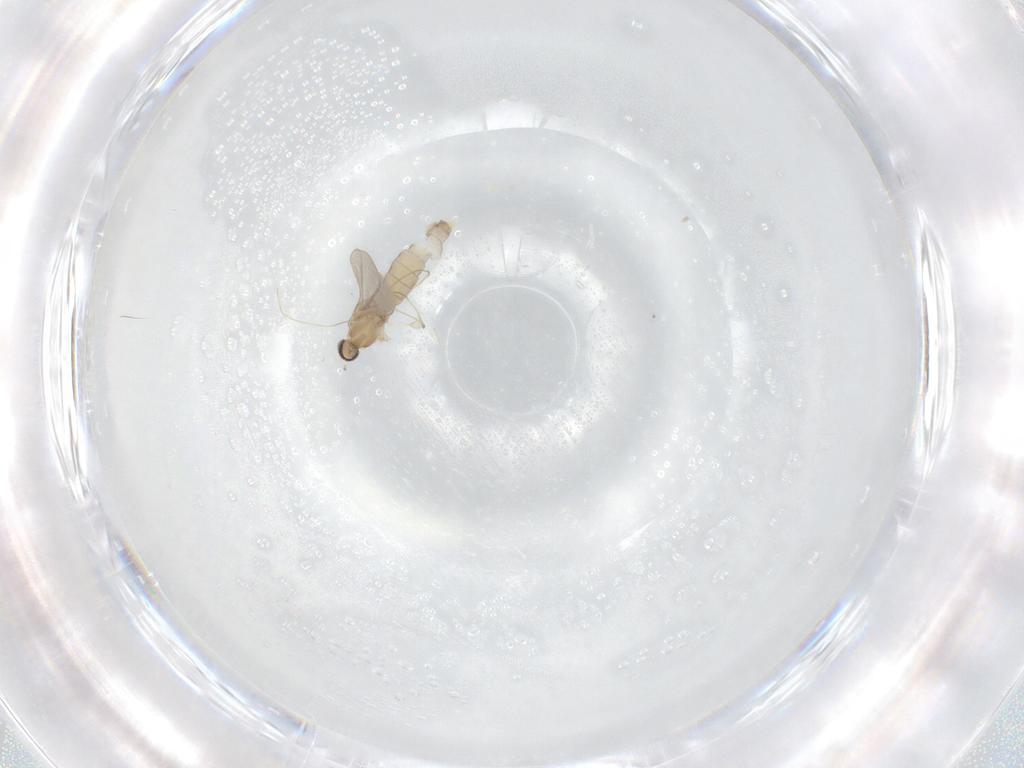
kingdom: Animalia
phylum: Arthropoda
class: Insecta
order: Diptera
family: Cecidomyiidae
